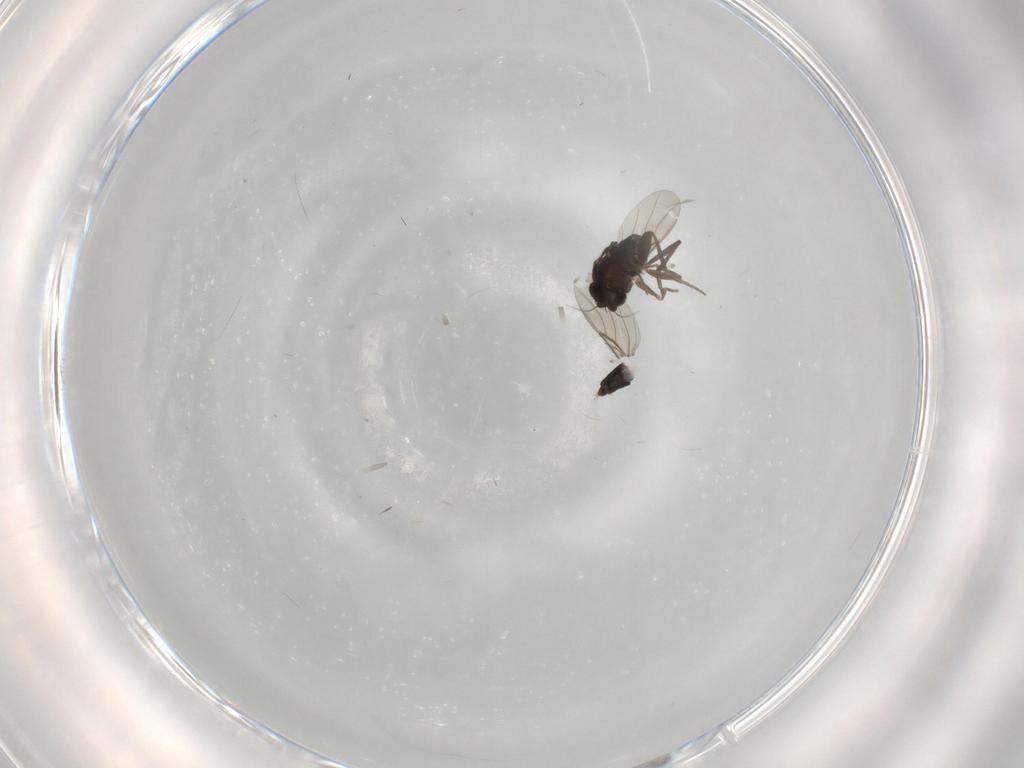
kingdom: Animalia
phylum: Arthropoda
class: Insecta
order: Diptera
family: Phoridae
